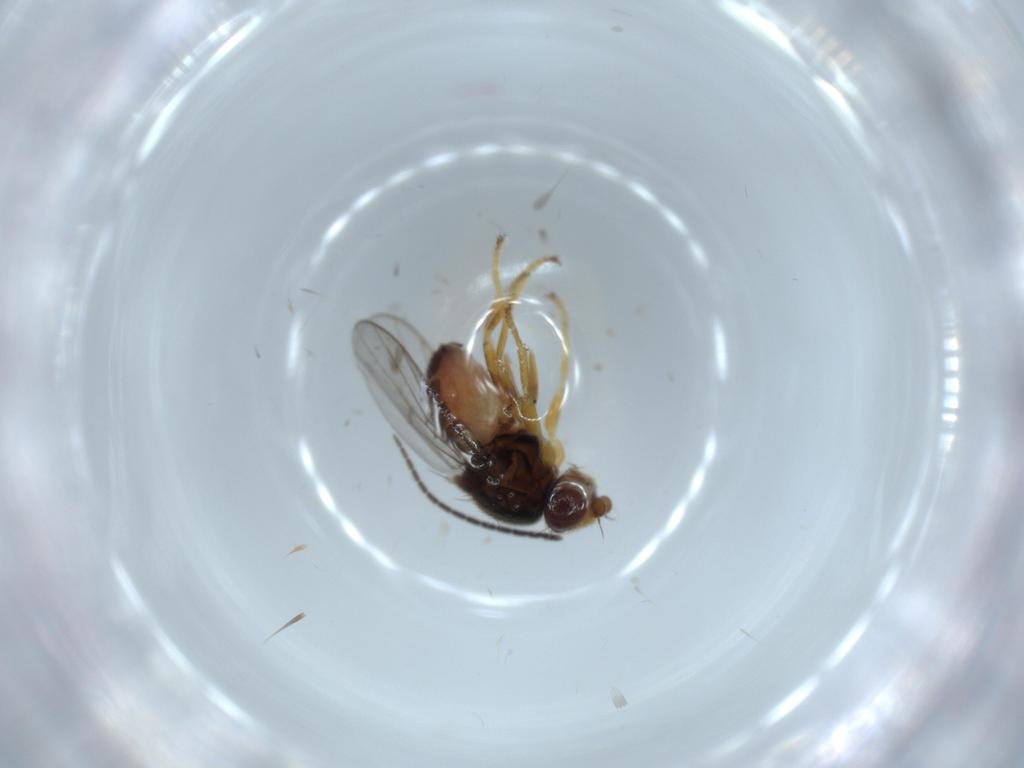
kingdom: Animalia
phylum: Arthropoda
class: Insecta
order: Diptera
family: Chloropidae
